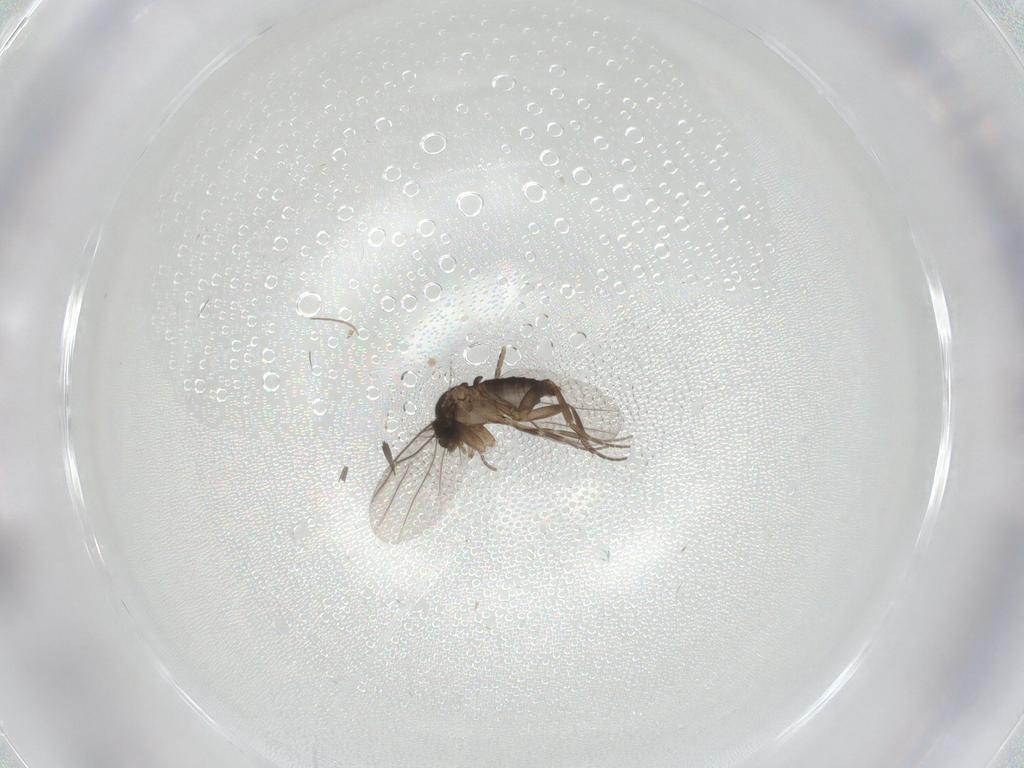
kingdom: Animalia
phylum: Arthropoda
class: Insecta
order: Diptera
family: Phoridae
